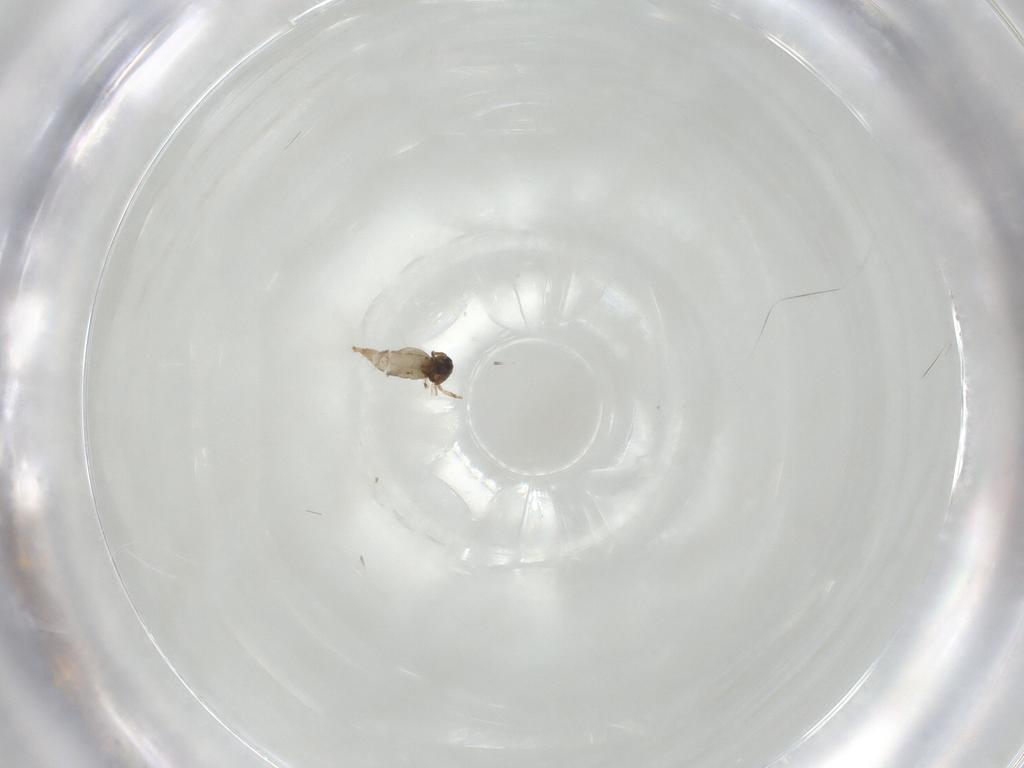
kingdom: Animalia
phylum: Arthropoda
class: Insecta
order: Diptera
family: Cecidomyiidae
